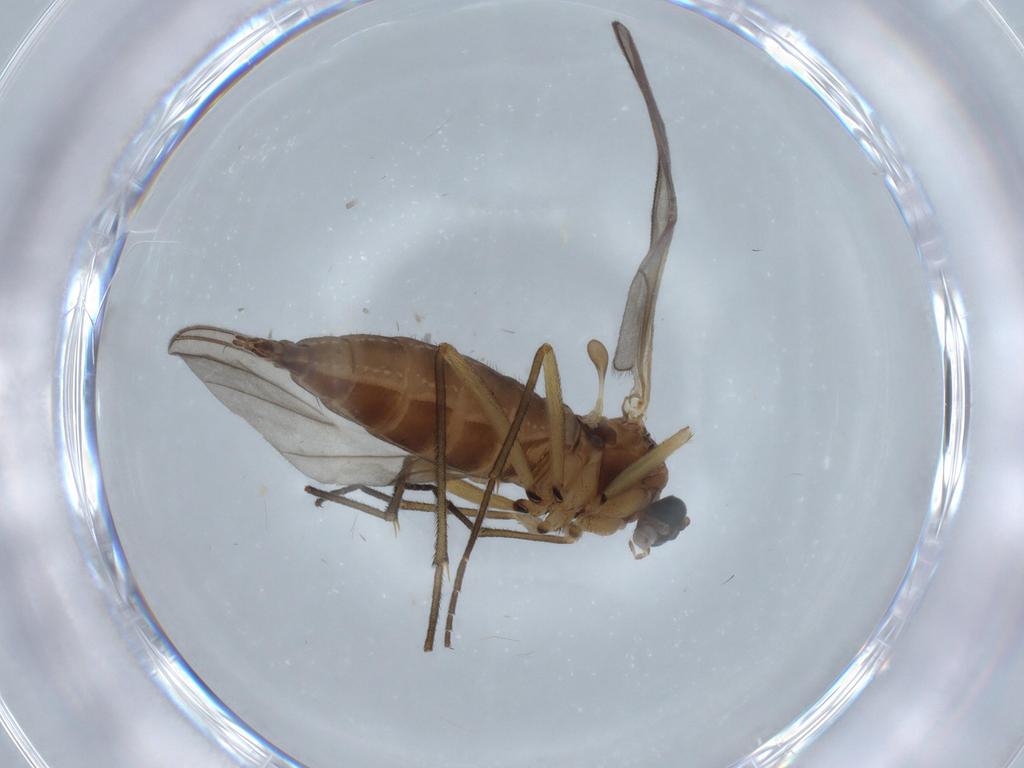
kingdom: Animalia
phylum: Arthropoda
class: Insecta
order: Diptera
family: Sciaridae
